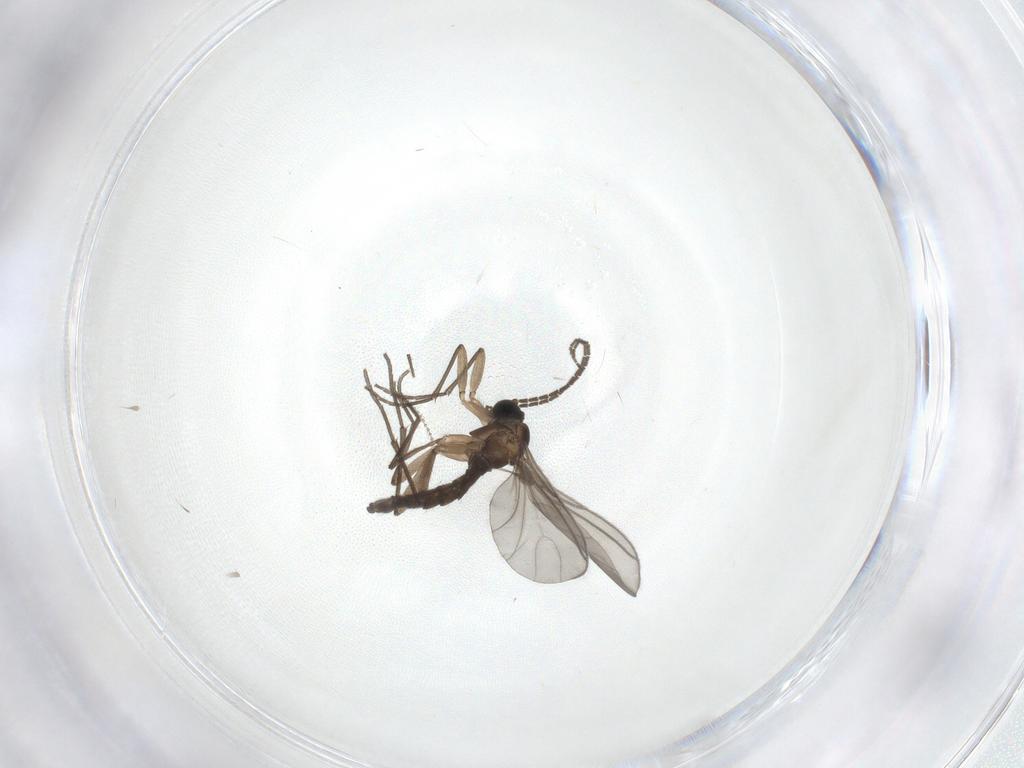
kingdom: Animalia
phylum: Arthropoda
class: Insecta
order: Diptera
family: Sciaridae
